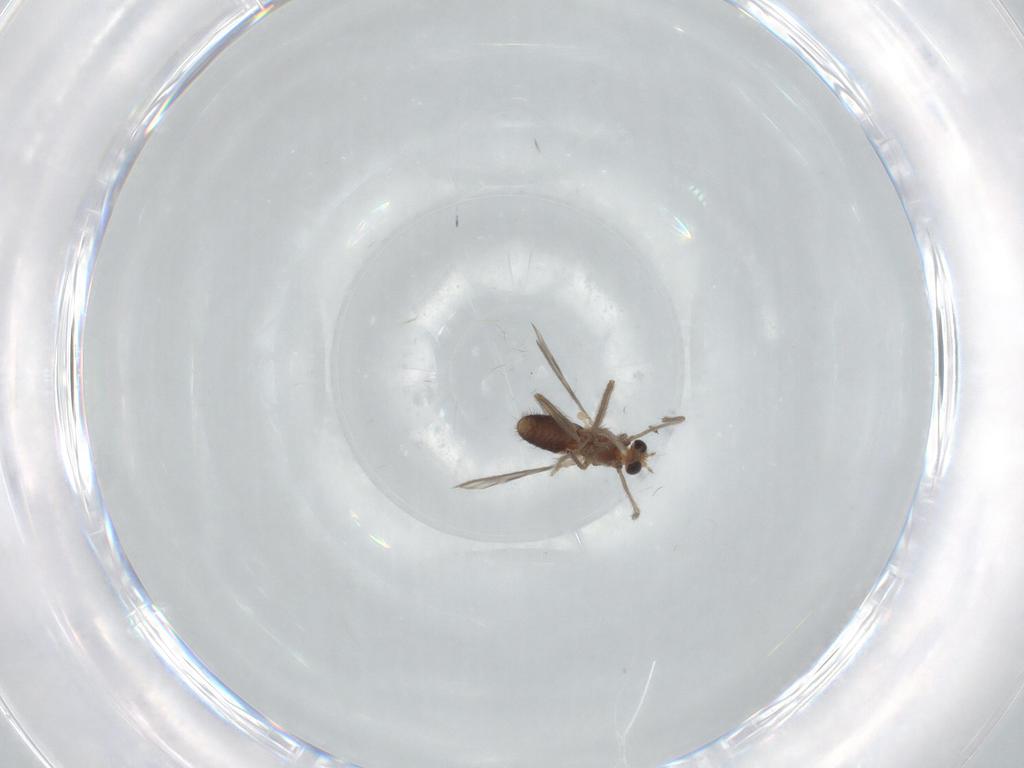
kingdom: Animalia
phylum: Arthropoda
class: Insecta
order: Diptera
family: Chironomidae
